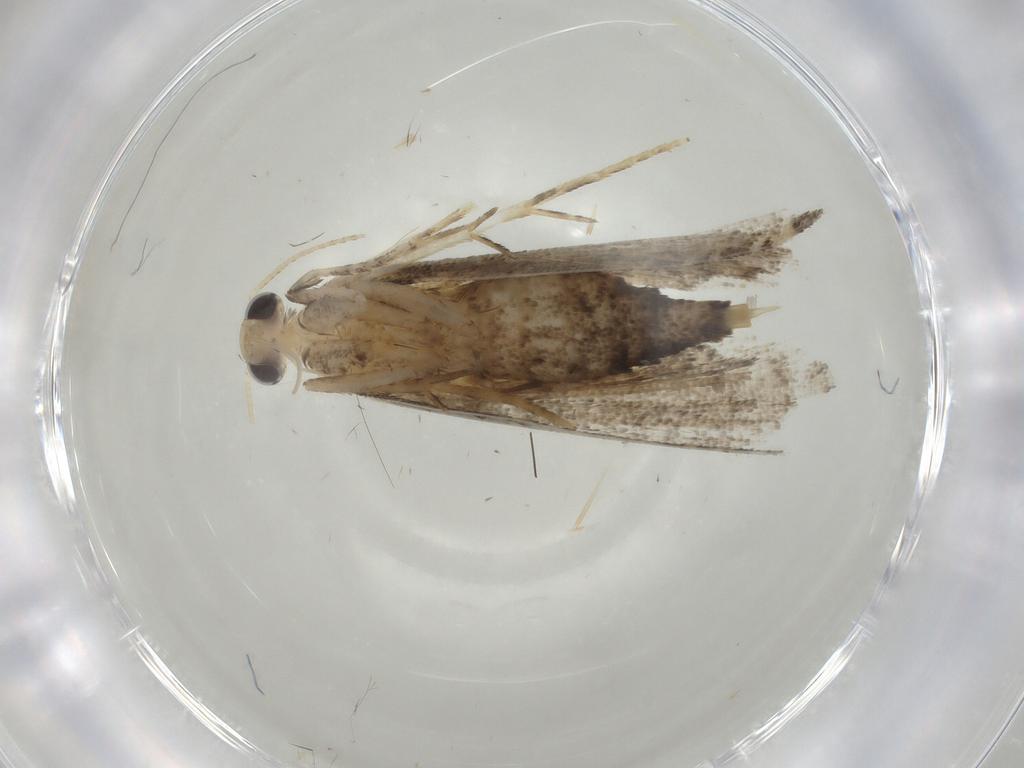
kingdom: Animalia
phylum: Arthropoda
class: Insecta
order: Lepidoptera
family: Crambidae
